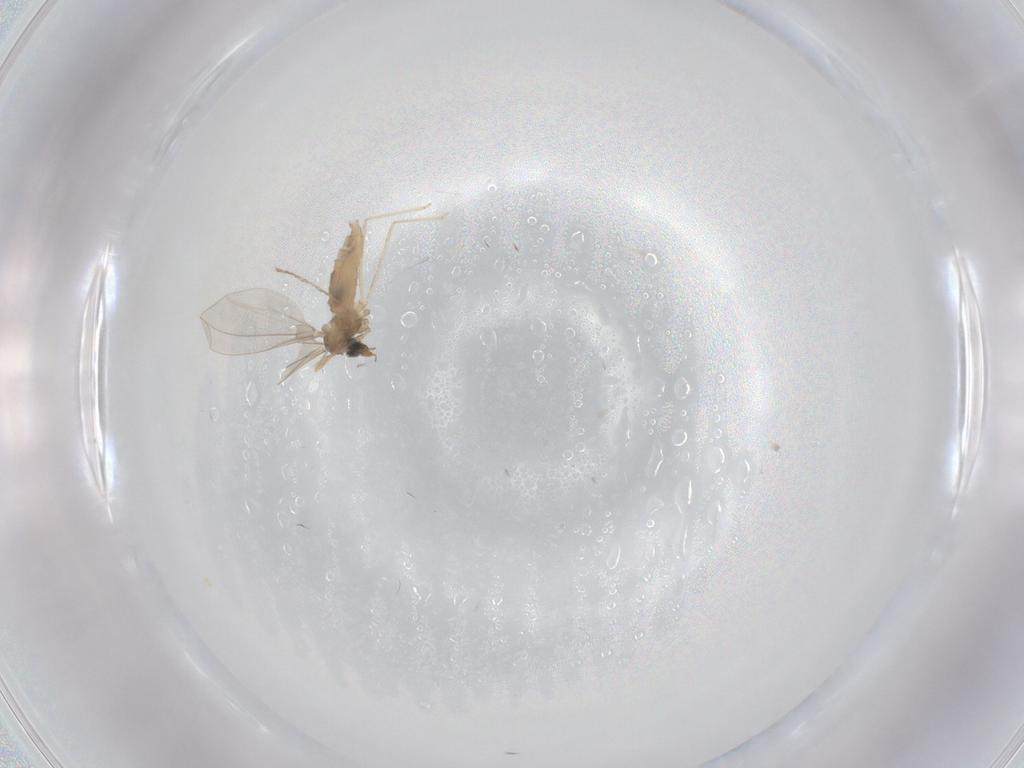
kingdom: Animalia
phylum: Arthropoda
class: Insecta
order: Diptera
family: Cecidomyiidae
